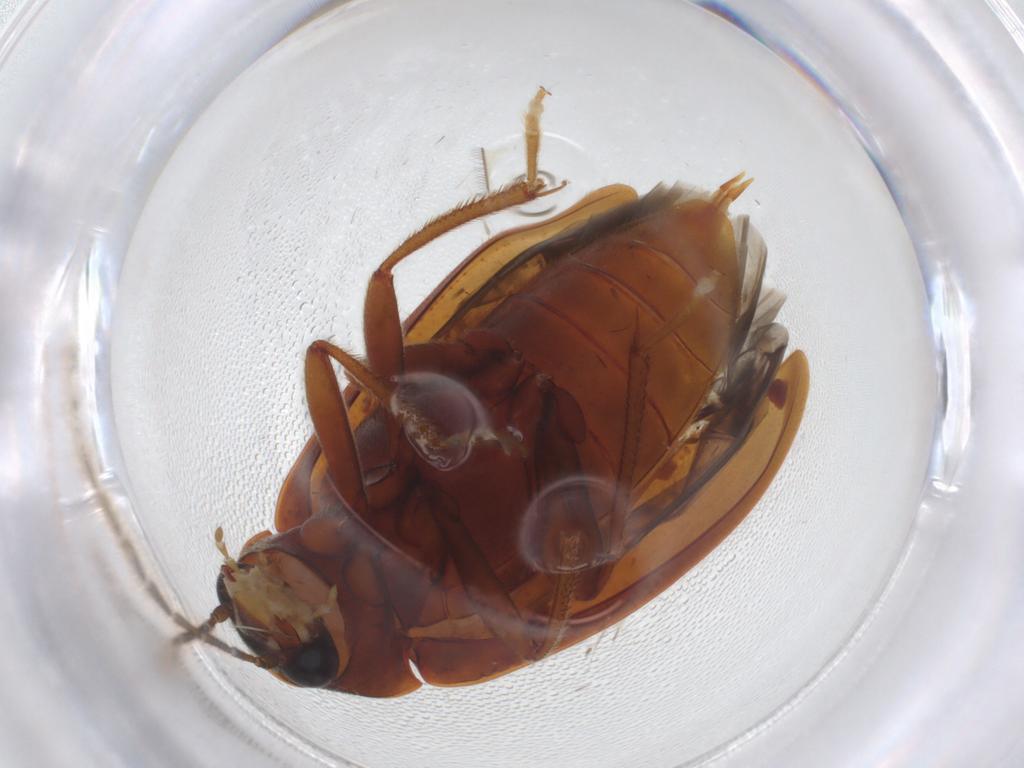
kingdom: Animalia
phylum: Arthropoda
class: Insecta
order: Coleoptera
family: Ptilodactylidae
